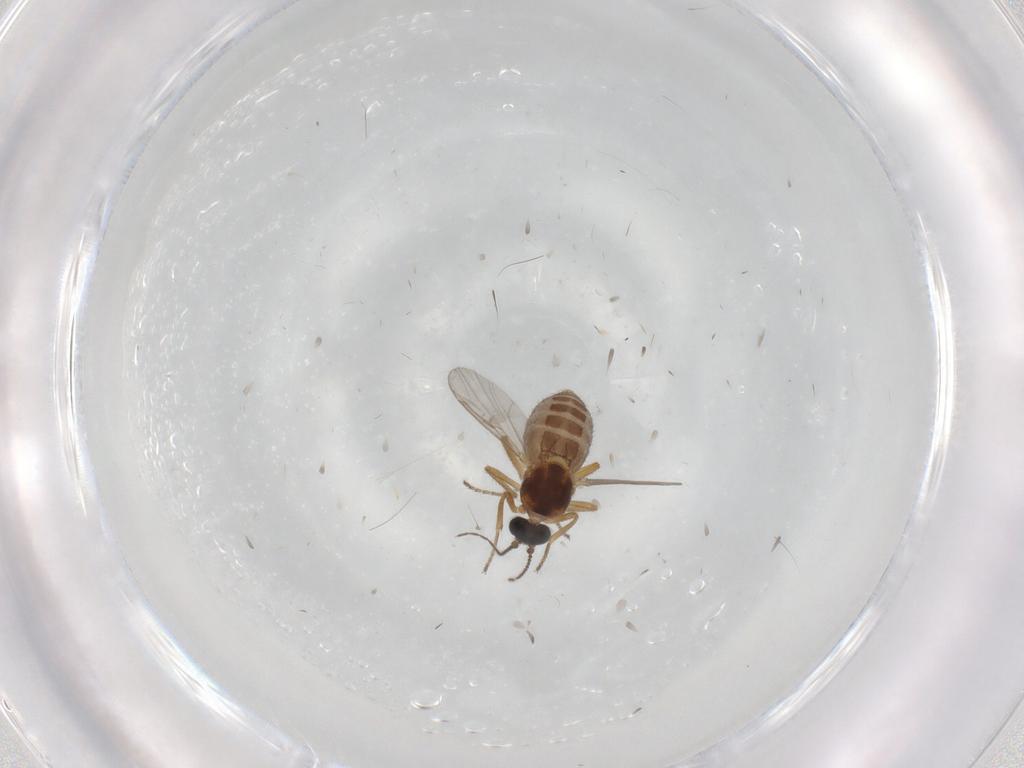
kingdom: Animalia
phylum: Arthropoda
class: Insecta
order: Diptera
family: Ceratopogonidae
